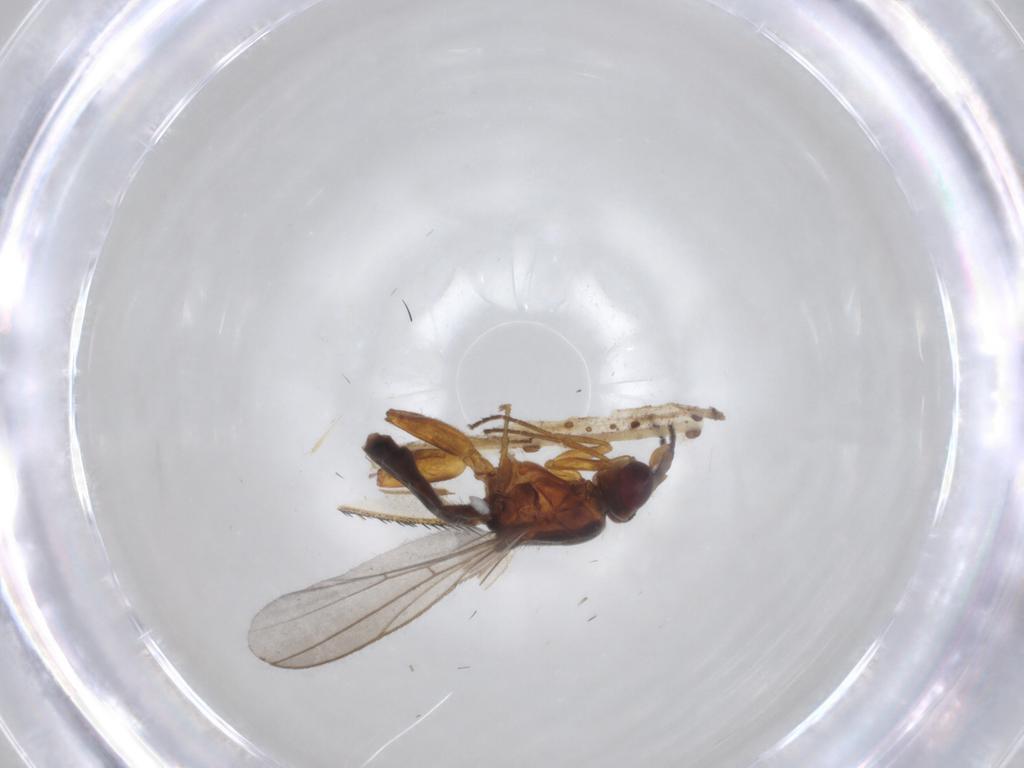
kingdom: Animalia
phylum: Arthropoda
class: Insecta
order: Diptera
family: Chloropidae
